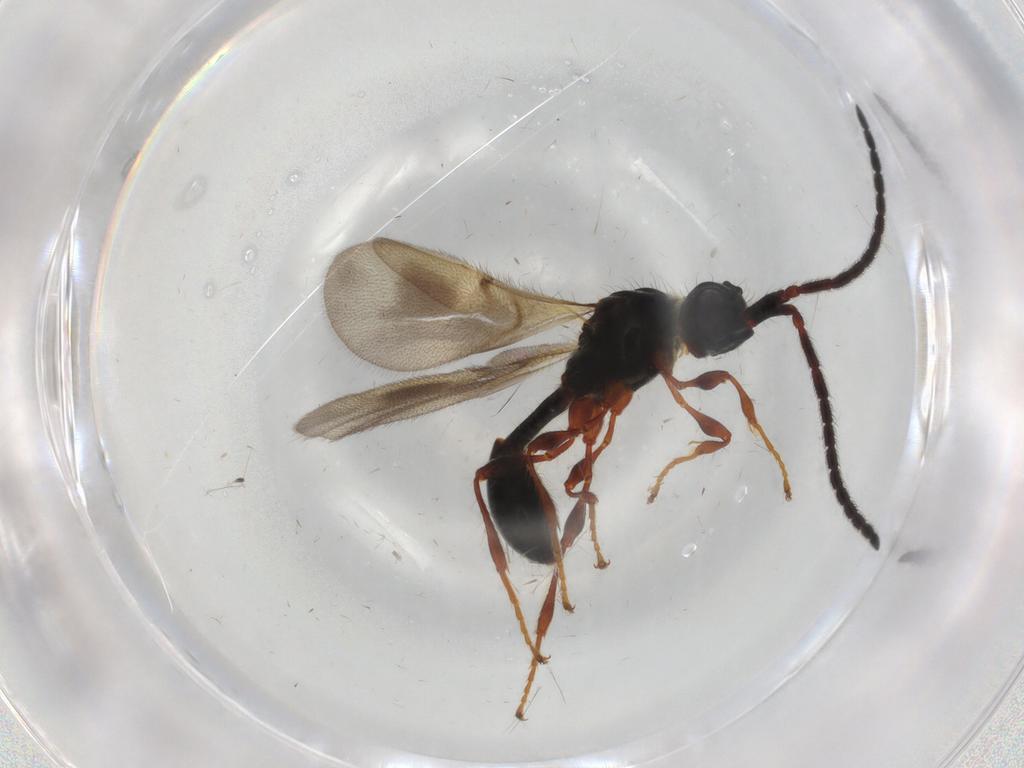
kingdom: Animalia
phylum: Arthropoda
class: Insecta
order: Hymenoptera
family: Diapriidae
